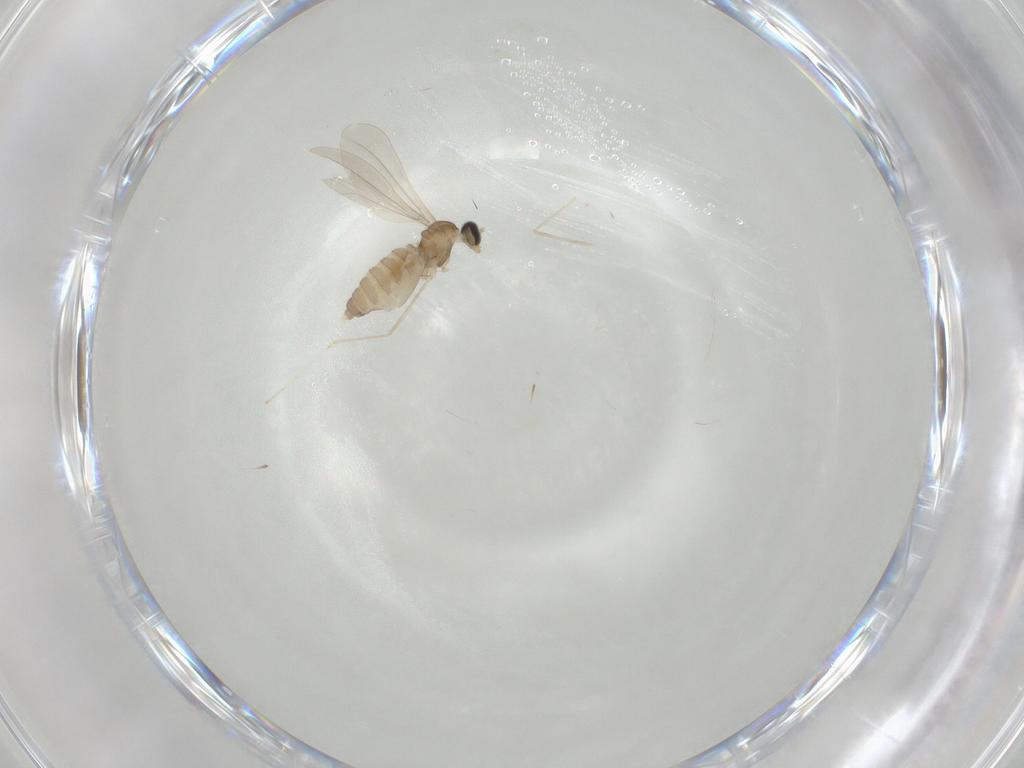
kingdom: Animalia
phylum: Arthropoda
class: Insecta
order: Diptera
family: Cecidomyiidae
